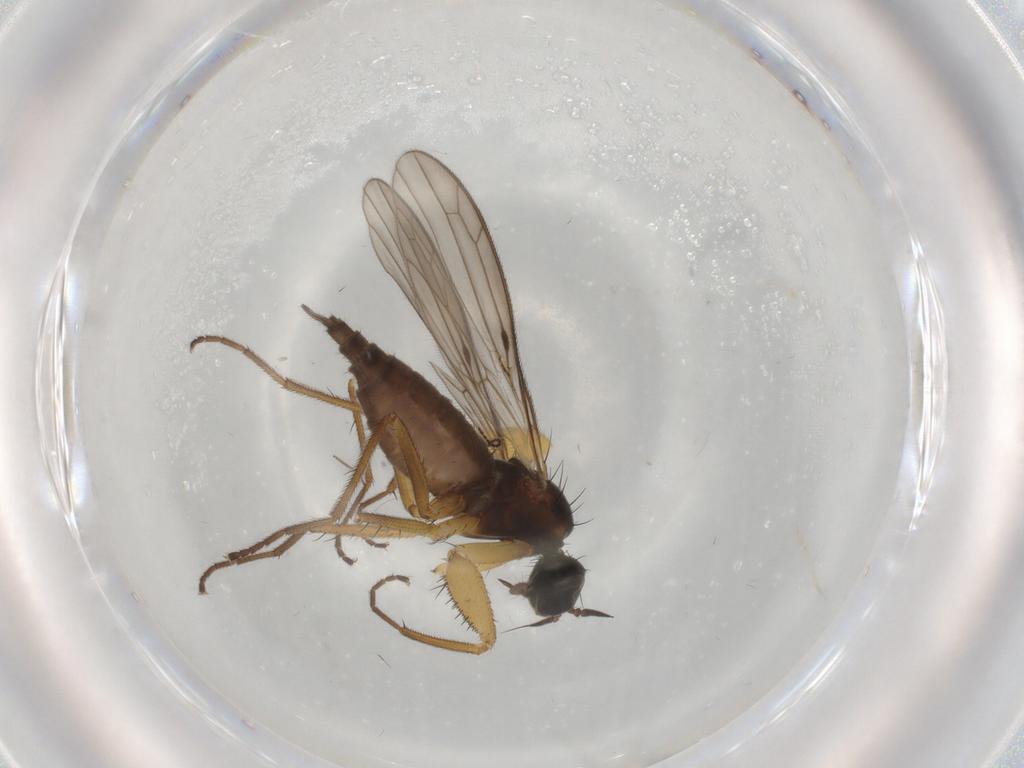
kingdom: Animalia
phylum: Arthropoda
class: Insecta
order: Diptera
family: Empididae
